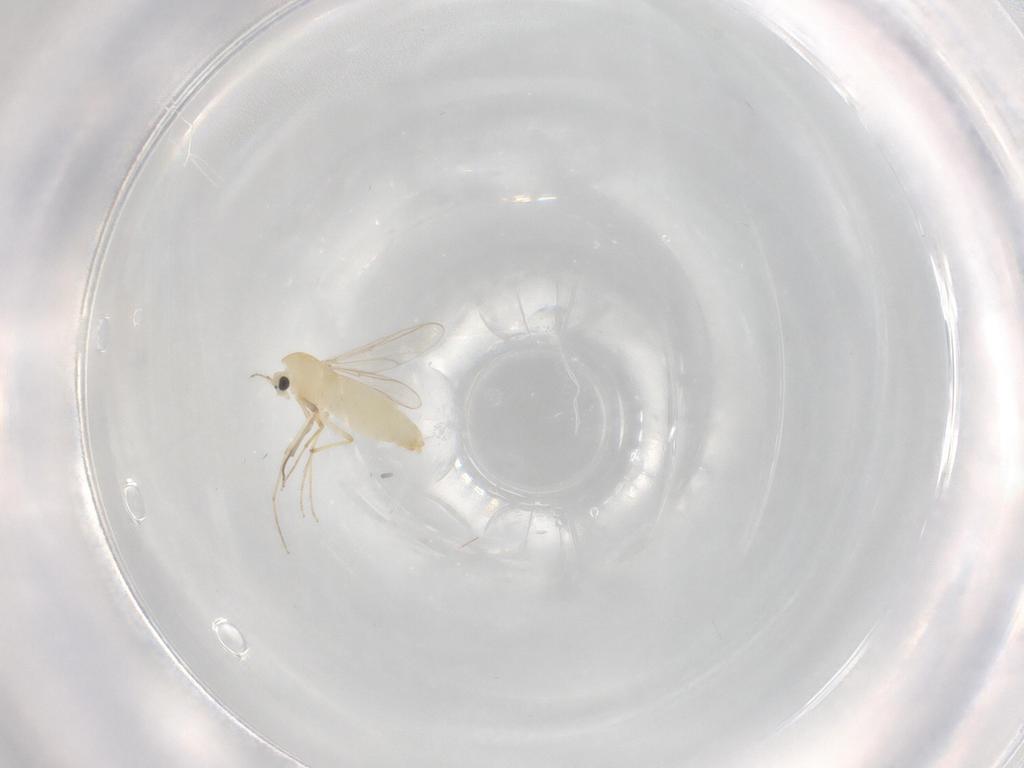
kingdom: Animalia
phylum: Arthropoda
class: Insecta
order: Diptera
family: Chironomidae
